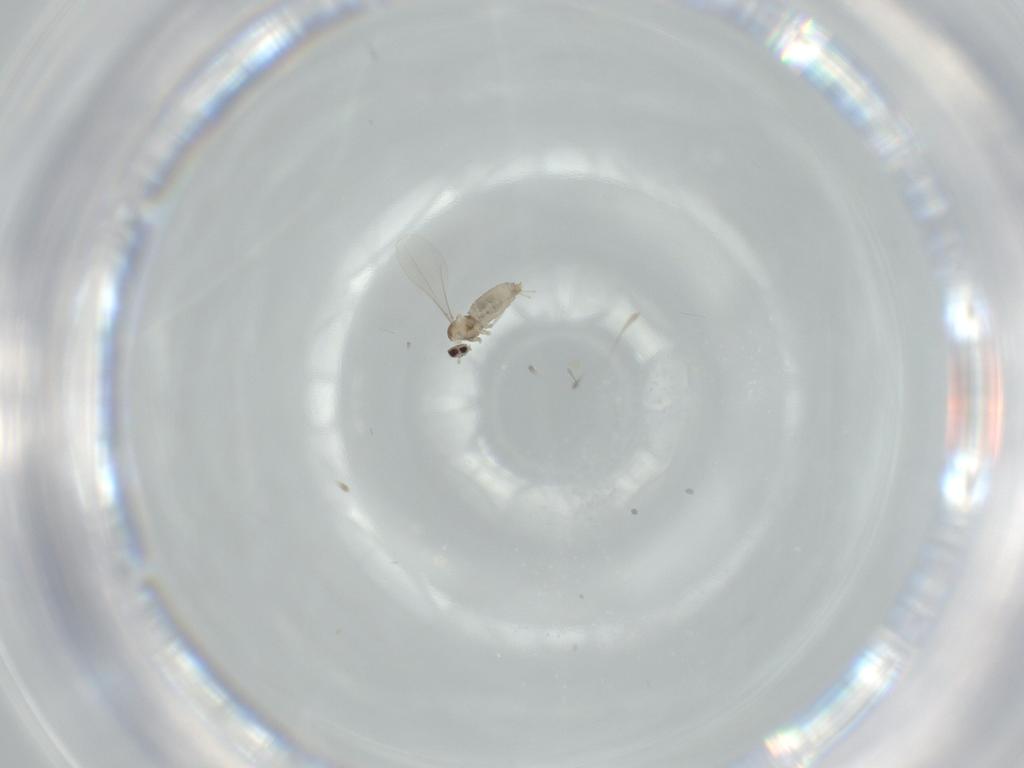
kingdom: Animalia
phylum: Arthropoda
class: Insecta
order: Diptera
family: Cecidomyiidae
